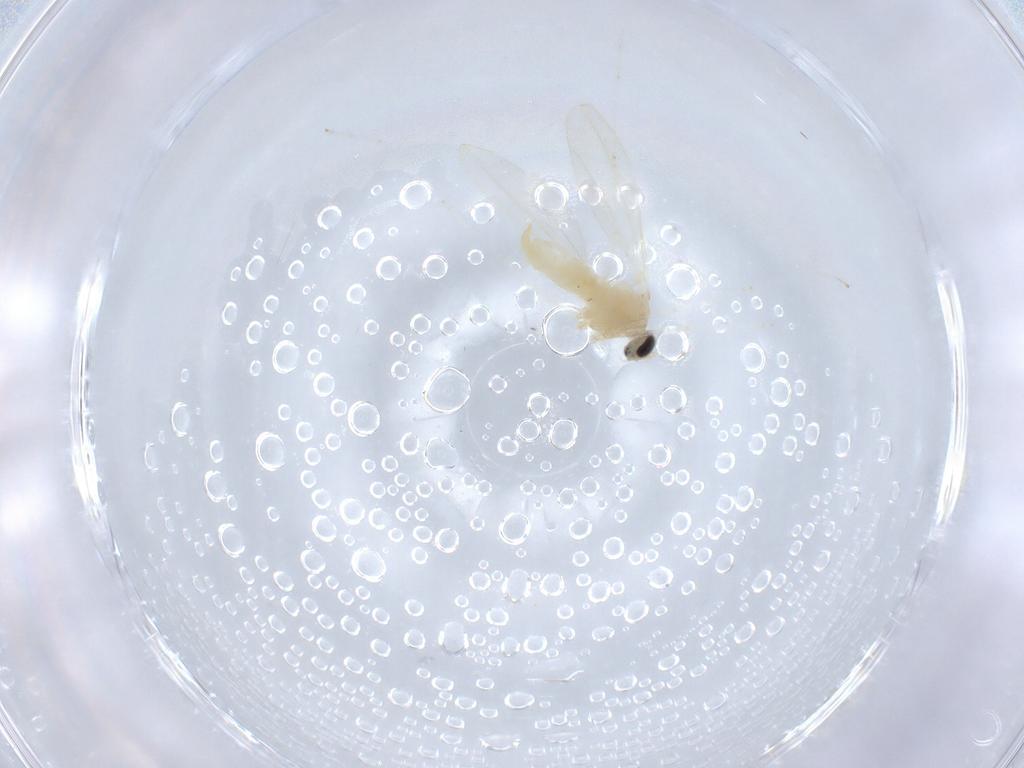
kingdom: Animalia
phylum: Arthropoda
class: Insecta
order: Diptera
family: Cecidomyiidae
